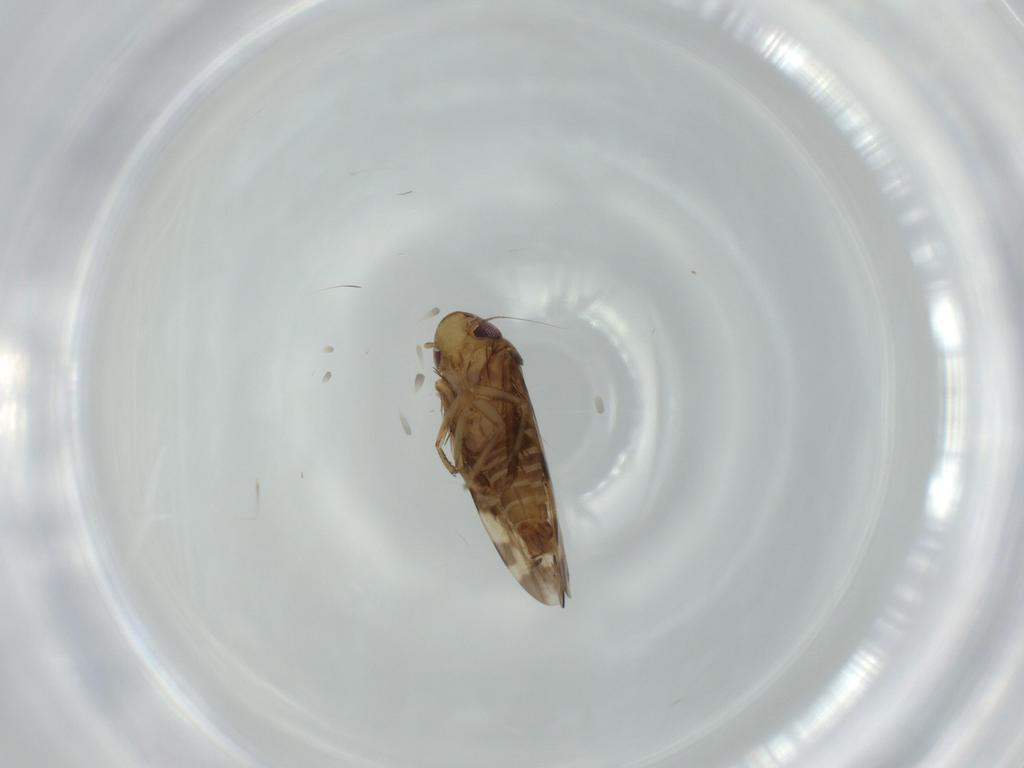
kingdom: Animalia
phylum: Arthropoda
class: Insecta
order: Hemiptera
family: Cicadellidae
